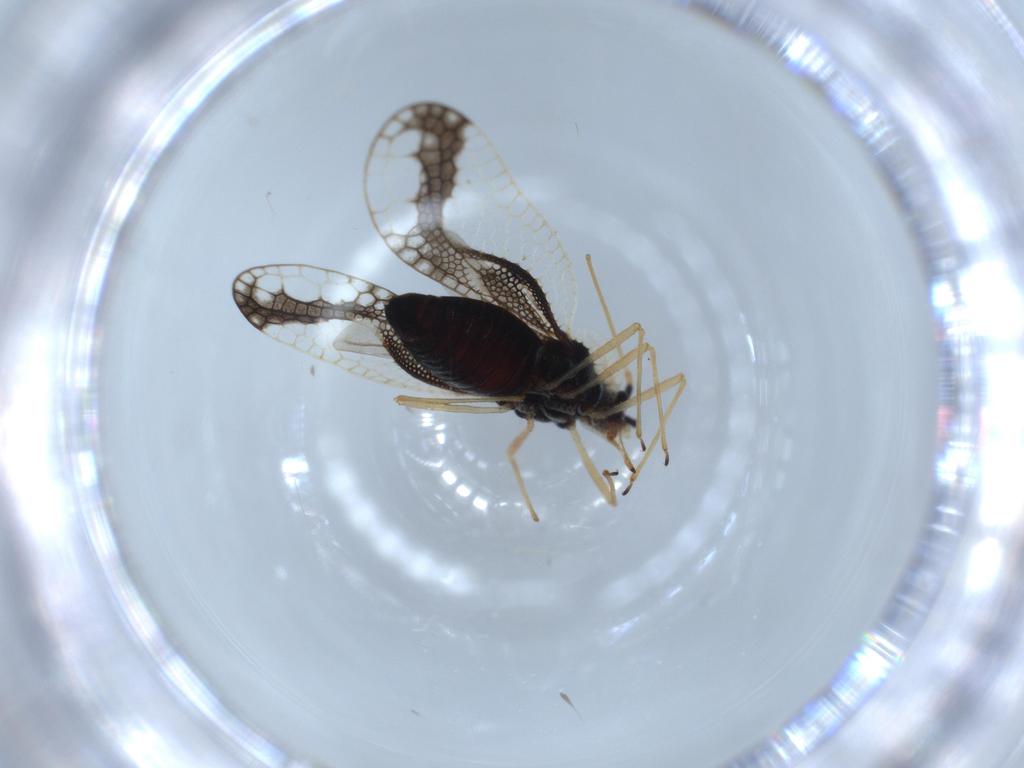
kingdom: Animalia
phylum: Arthropoda
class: Insecta
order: Hemiptera
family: Tingidae
